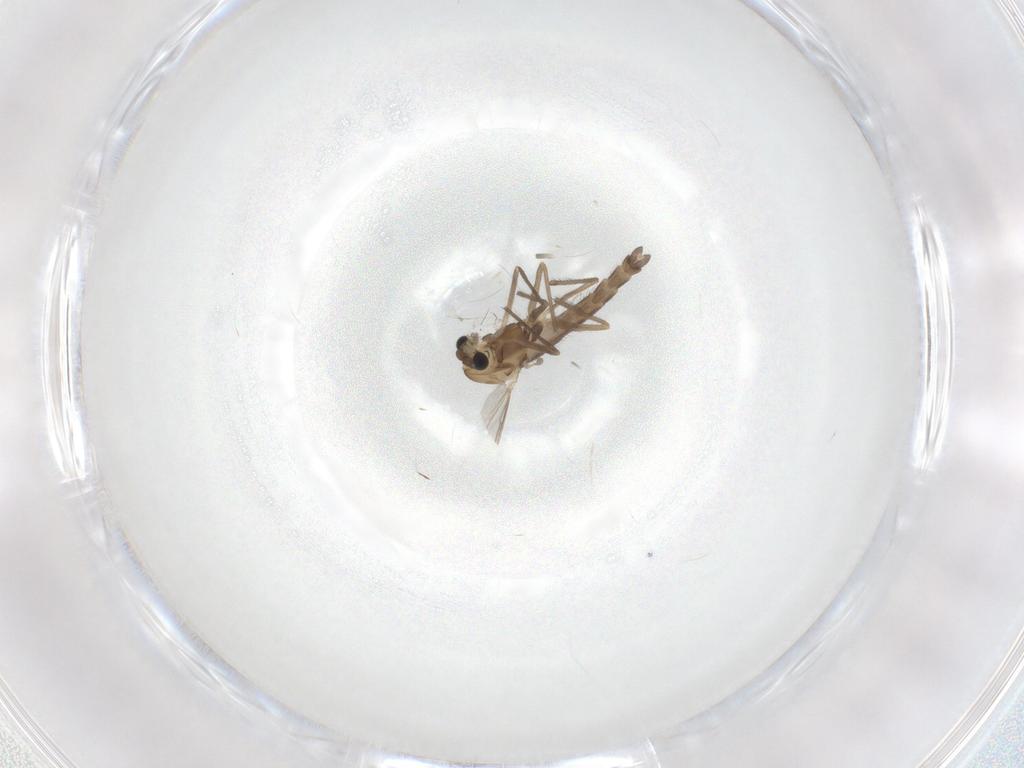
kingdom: Animalia
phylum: Arthropoda
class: Insecta
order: Diptera
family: Chironomidae
